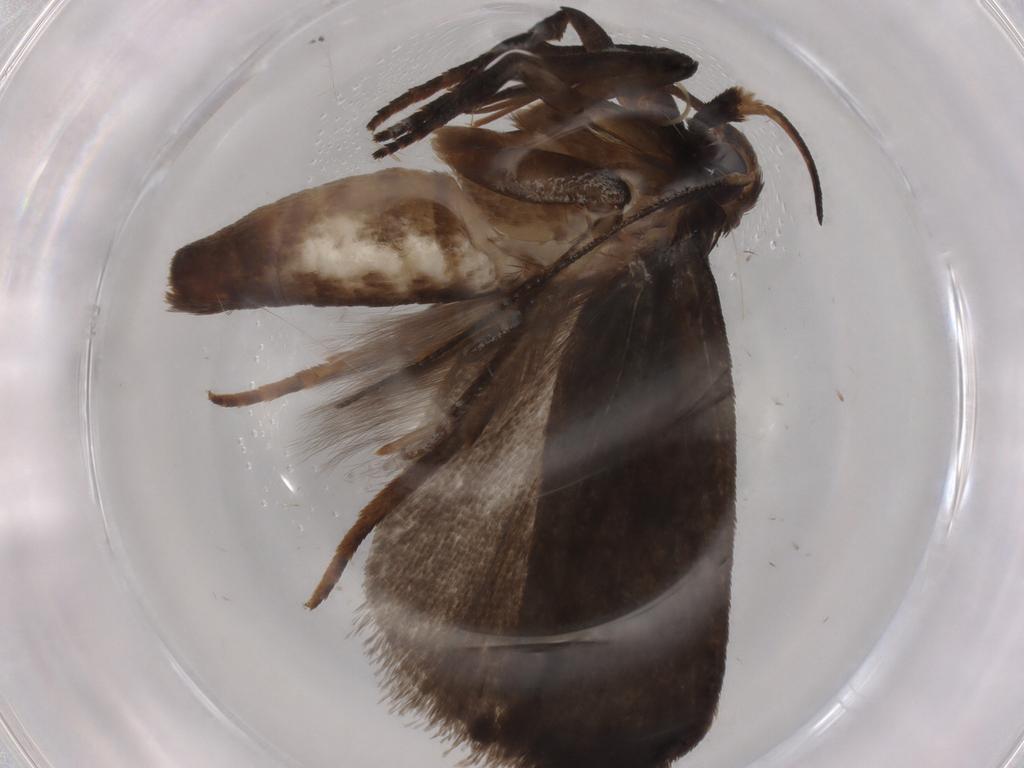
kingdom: Animalia
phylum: Arthropoda
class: Insecta
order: Lepidoptera
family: Gelechiidae
